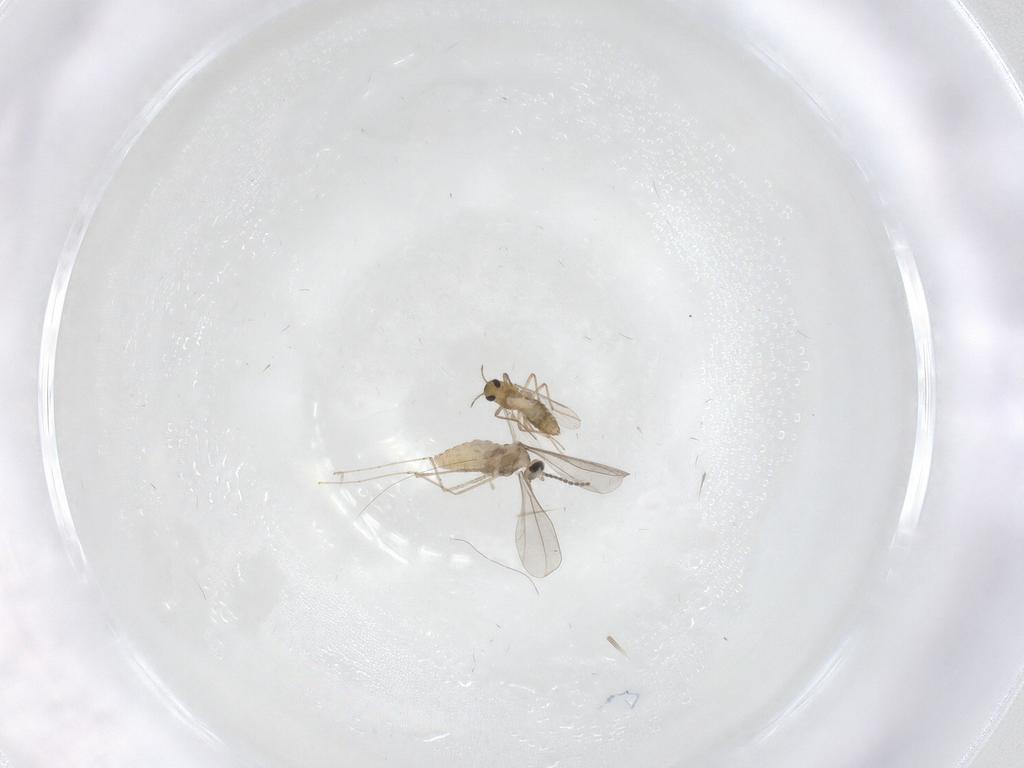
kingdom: Animalia
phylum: Arthropoda
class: Insecta
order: Diptera
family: Cecidomyiidae
